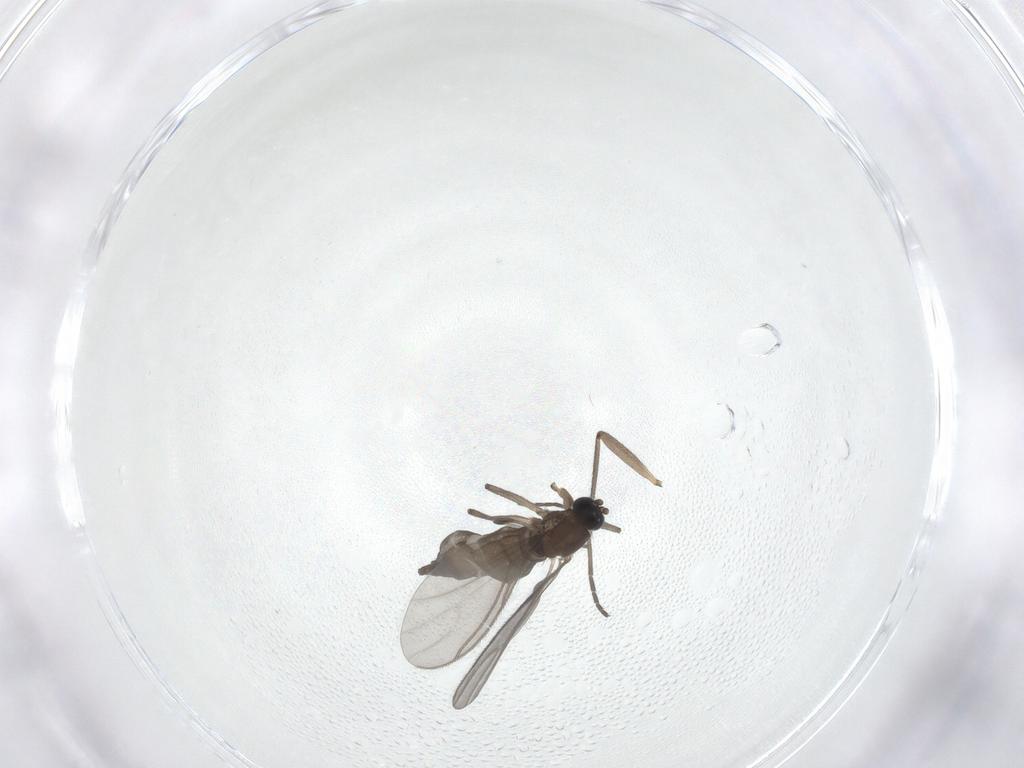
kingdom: Animalia
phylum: Arthropoda
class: Insecta
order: Diptera
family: Sciaridae
